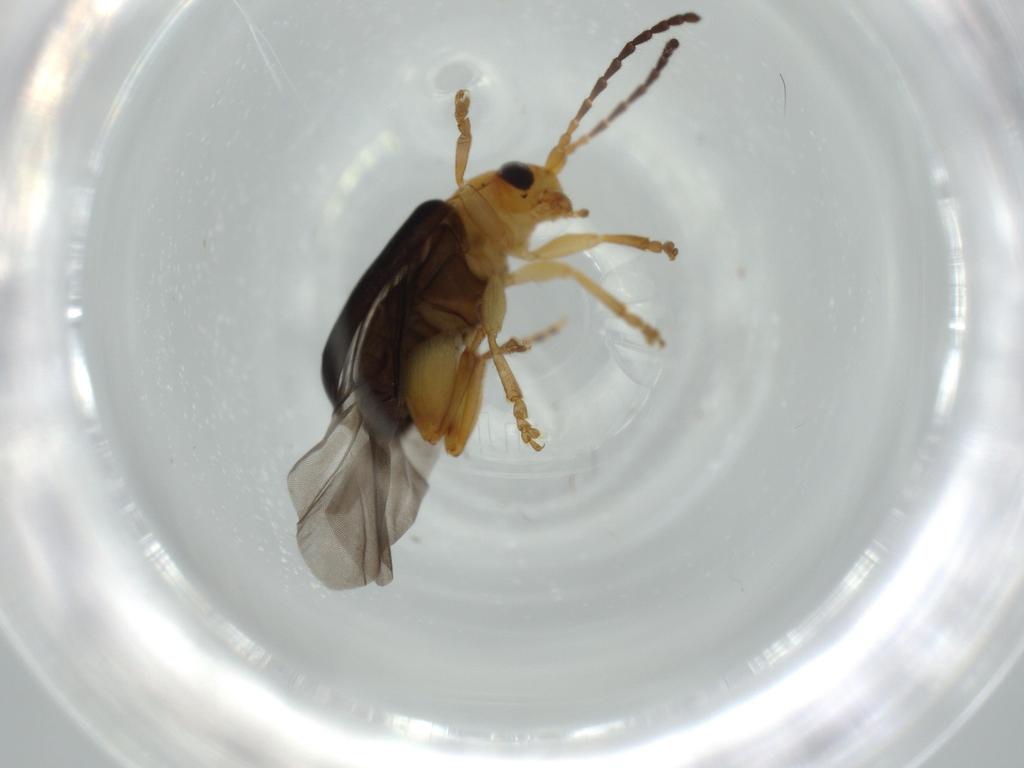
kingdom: Animalia
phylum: Arthropoda
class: Insecta
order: Coleoptera
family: Chrysomelidae
